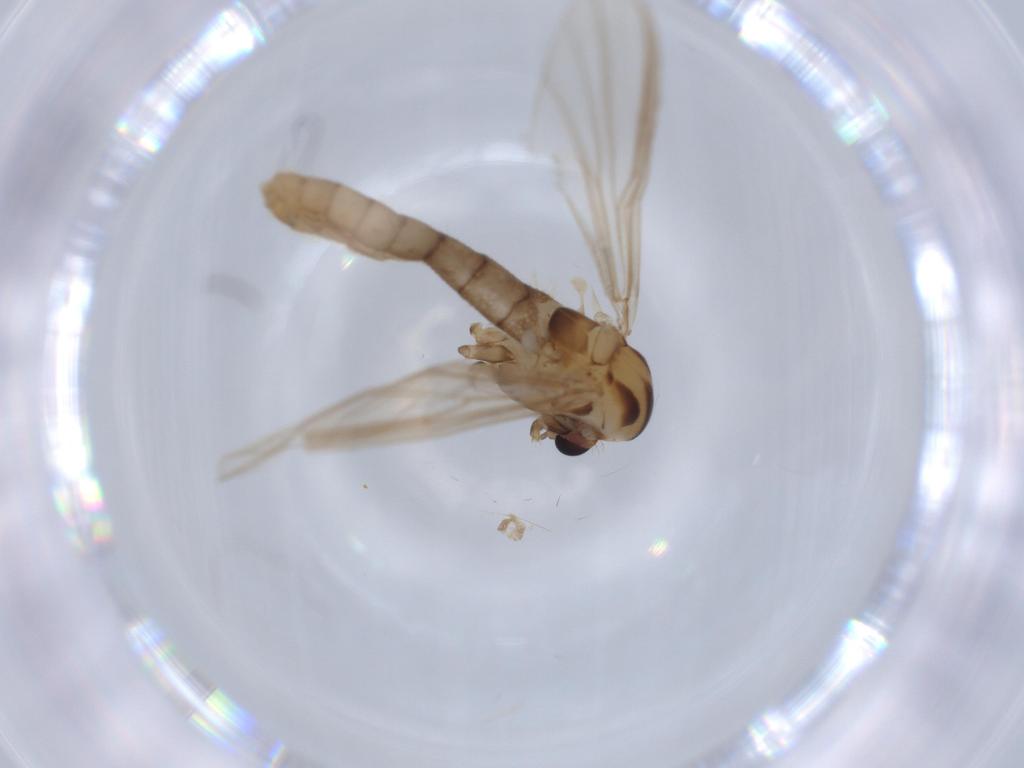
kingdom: Animalia
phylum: Arthropoda
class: Insecta
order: Diptera
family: Chironomidae
